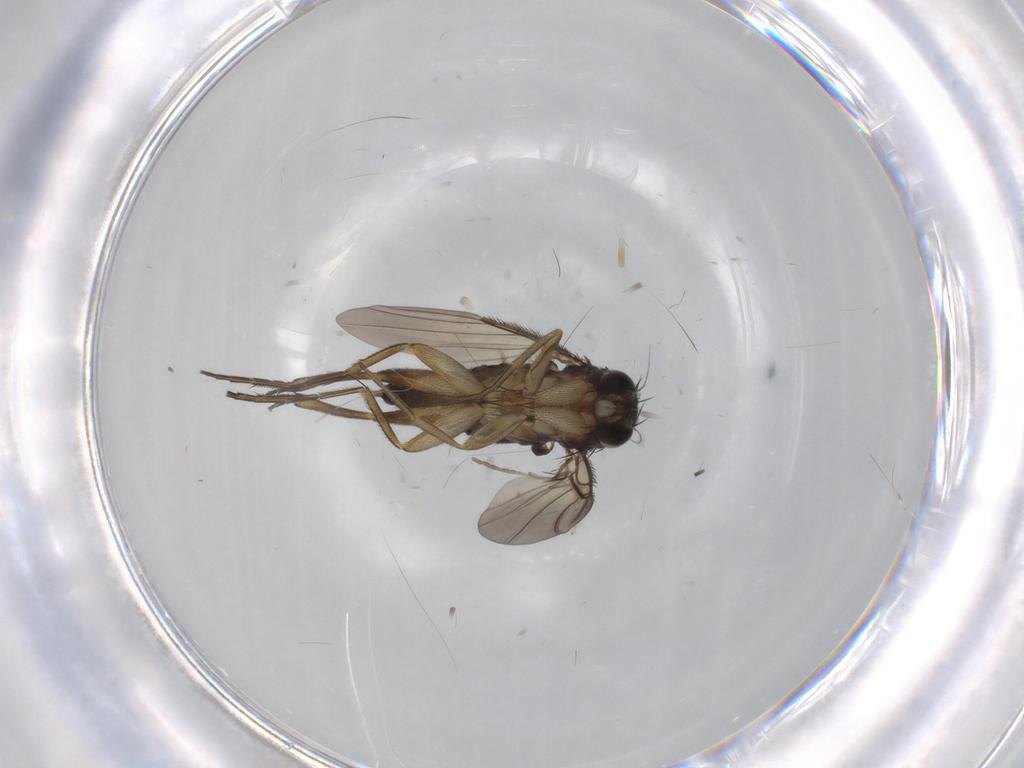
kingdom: Animalia
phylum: Arthropoda
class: Insecta
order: Diptera
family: Phoridae
